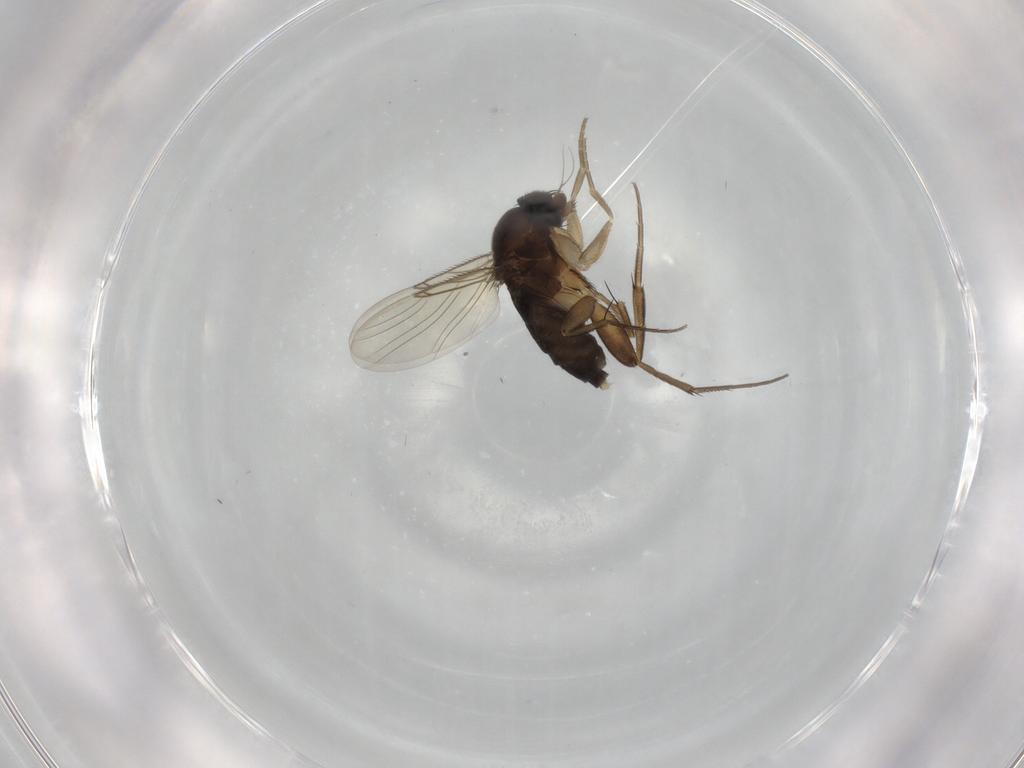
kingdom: Animalia
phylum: Arthropoda
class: Insecta
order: Diptera
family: Phoridae
